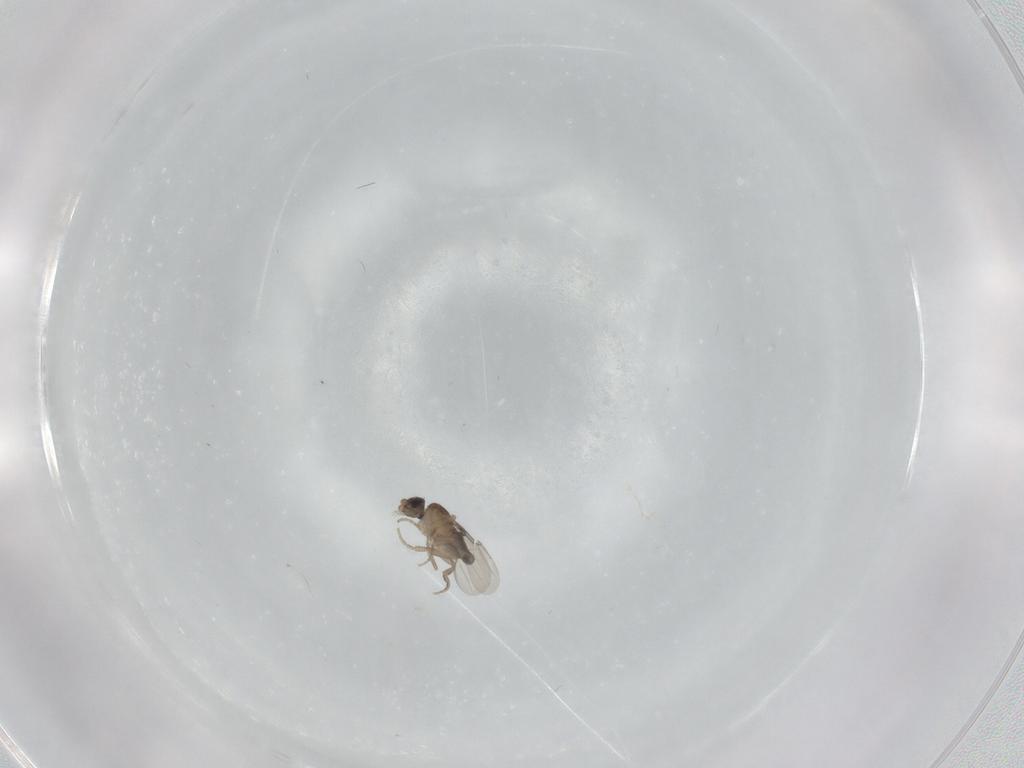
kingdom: Animalia
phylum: Arthropoda
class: Insecta
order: Diptera
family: Phoridae
